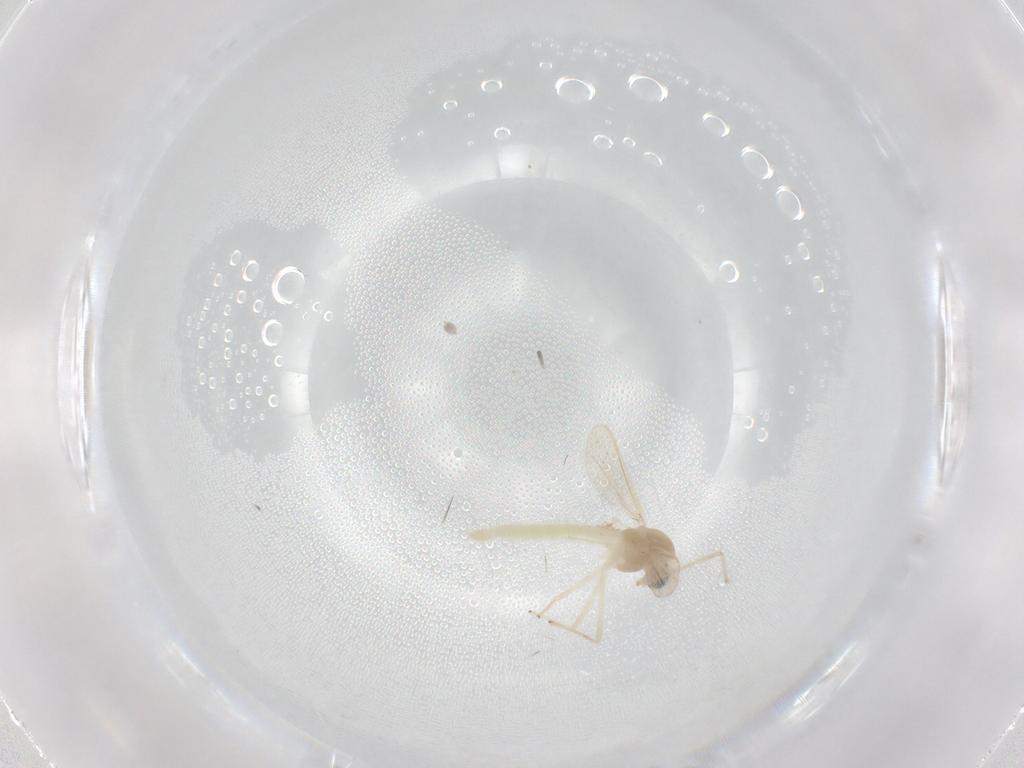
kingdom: Animalia
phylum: Arthropoda
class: Insecta
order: Diptera
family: Chironomidae
